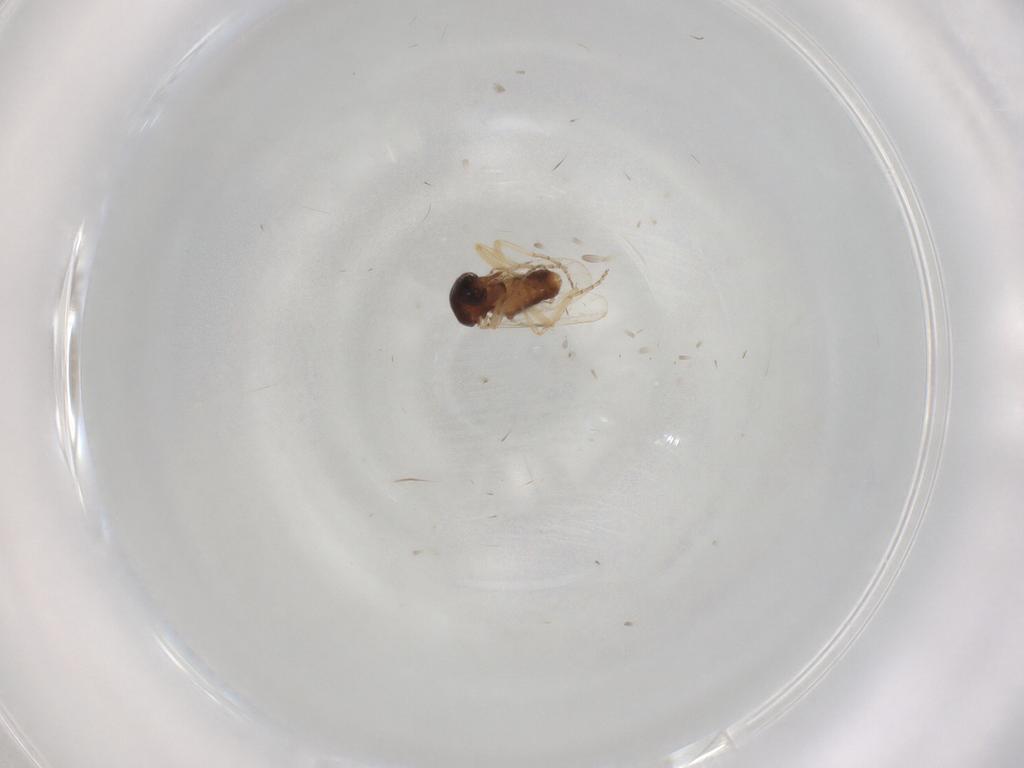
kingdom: Animalia
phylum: Arthropoda
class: Insecta
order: Diptera
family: Ceratopogonidae
